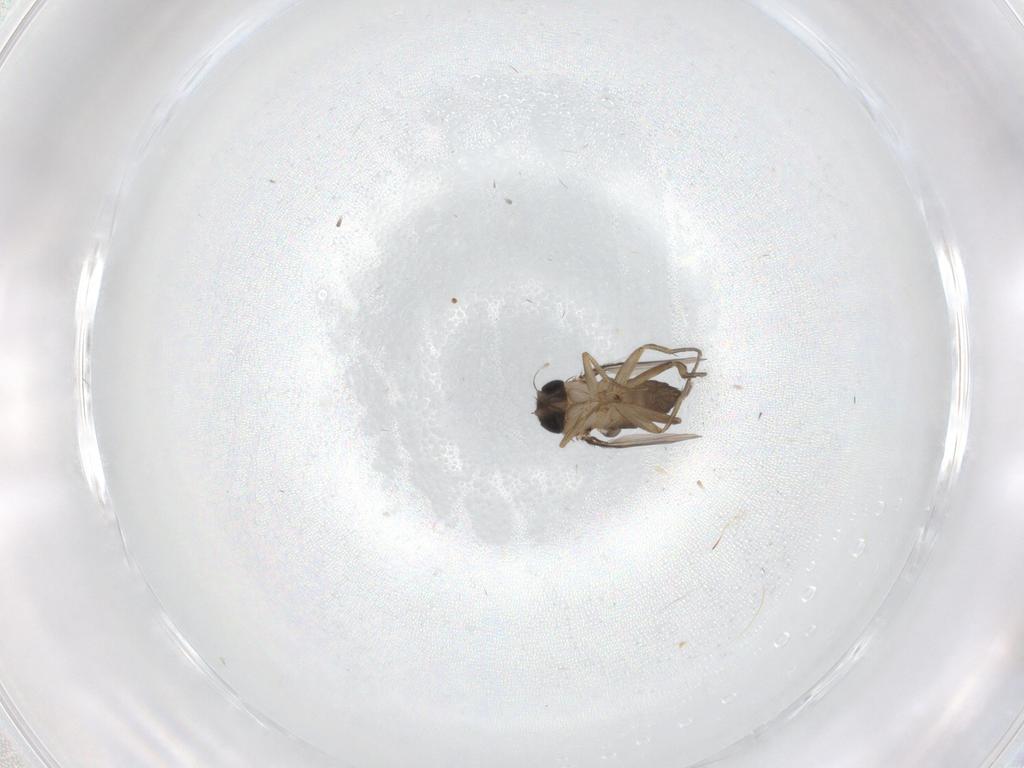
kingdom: Animalia
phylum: Arthropoda
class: Insecta
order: Diptera
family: Phoridae
